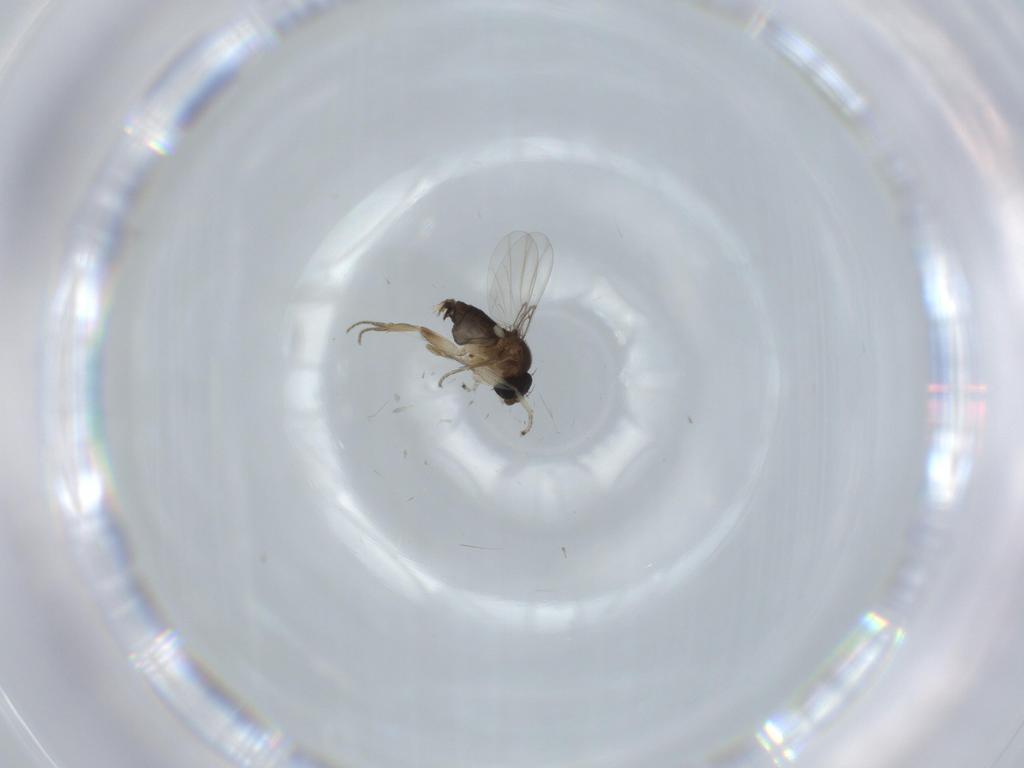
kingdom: Animalia
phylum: Arthropoda
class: Insecta
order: Diptera
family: Phoridae
